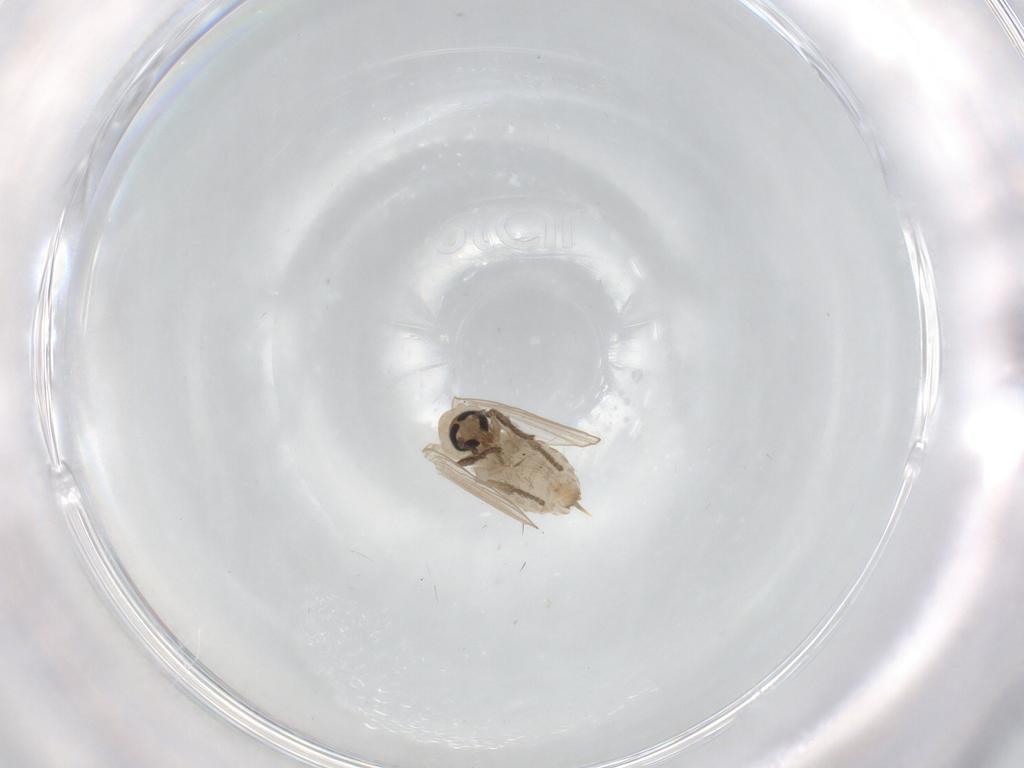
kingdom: Animalia
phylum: Arthropoda
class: Insecta
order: Diptera
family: Psychodidae
